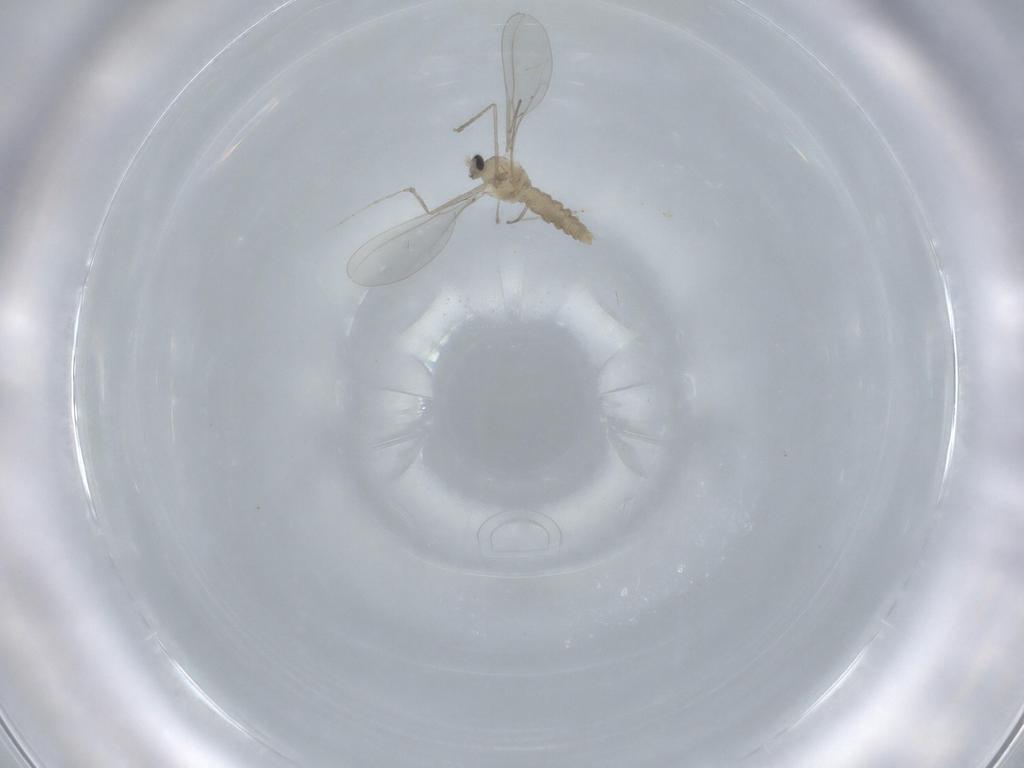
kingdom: Animalia
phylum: Arthropoda
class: Insecta
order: Diptera
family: Cecidomyiidae
